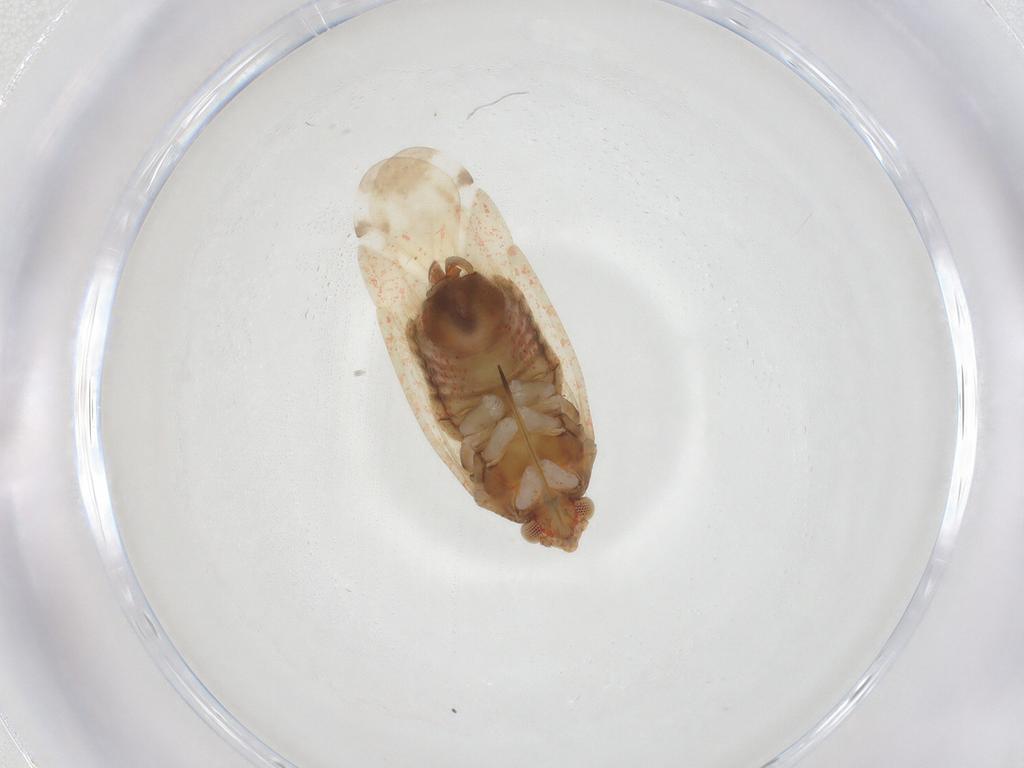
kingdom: Animalia
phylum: Arthropoda
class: Insecta
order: Hemiptera
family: Miridae
